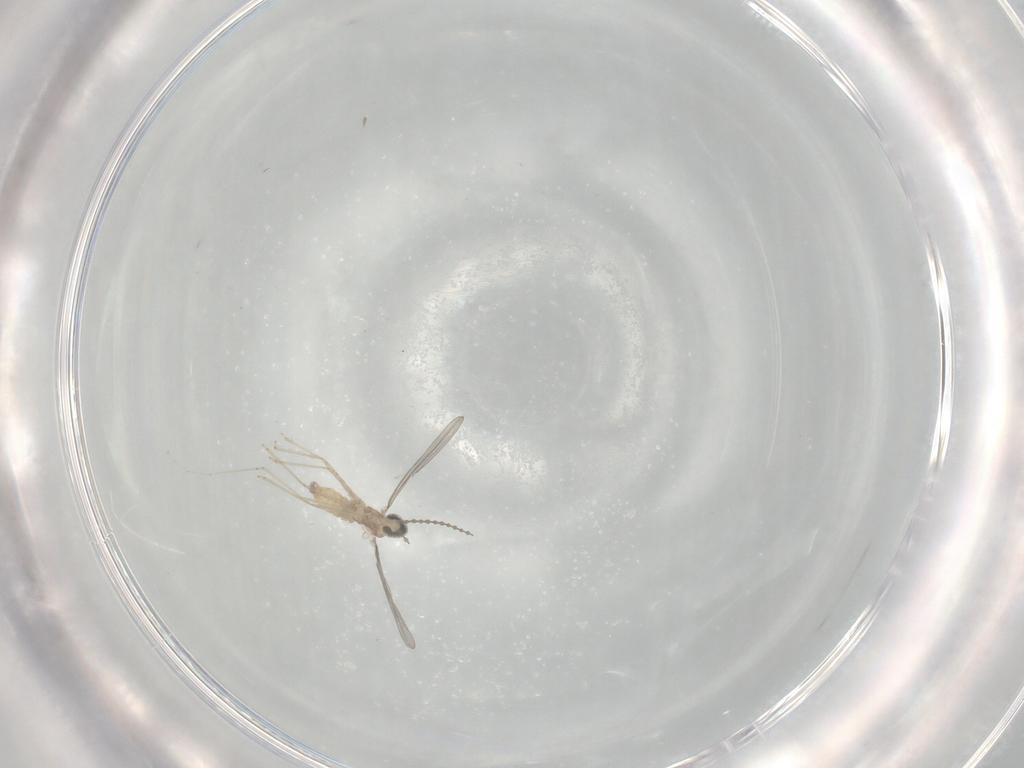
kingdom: Animalia
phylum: Arthropoda
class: Insecta
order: Diptera
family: Cecidomyiidae
